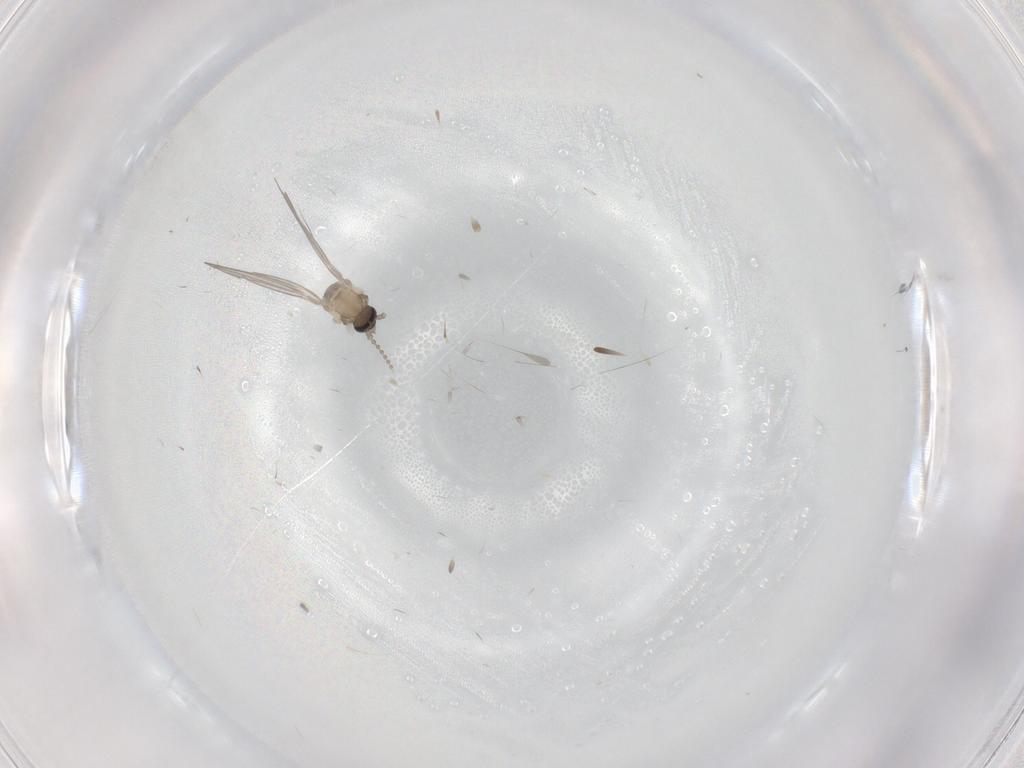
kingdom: Animalia
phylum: Arthropoda
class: Insecta
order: Diptera
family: Psychodidae
